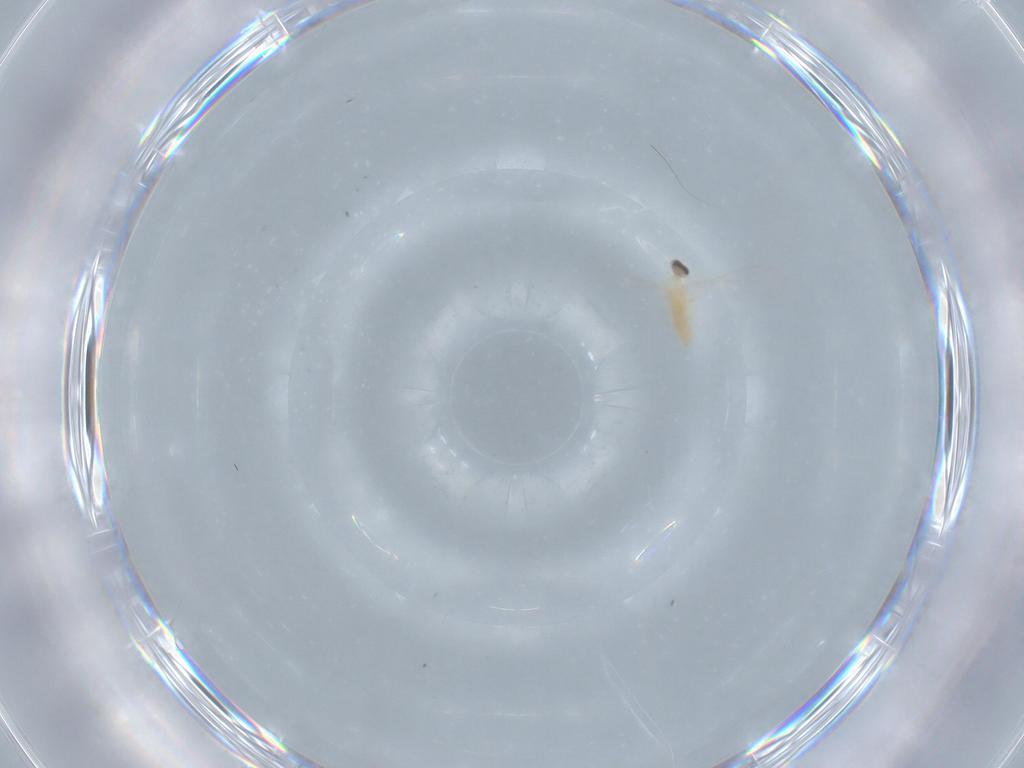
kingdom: Animalia
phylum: Arthropoda
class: Insecta
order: Diptera
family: Cecidomyiidae
